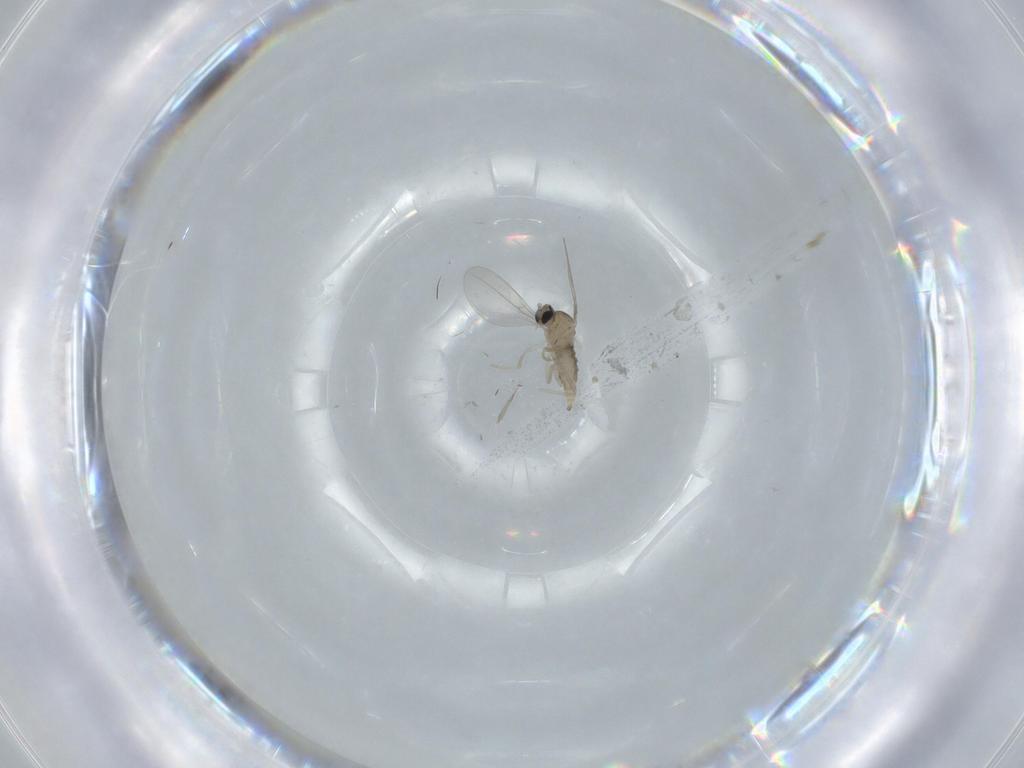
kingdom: Animalia
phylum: Arthropoda
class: Insecta
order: Diptera
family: Cecidomyiidae
